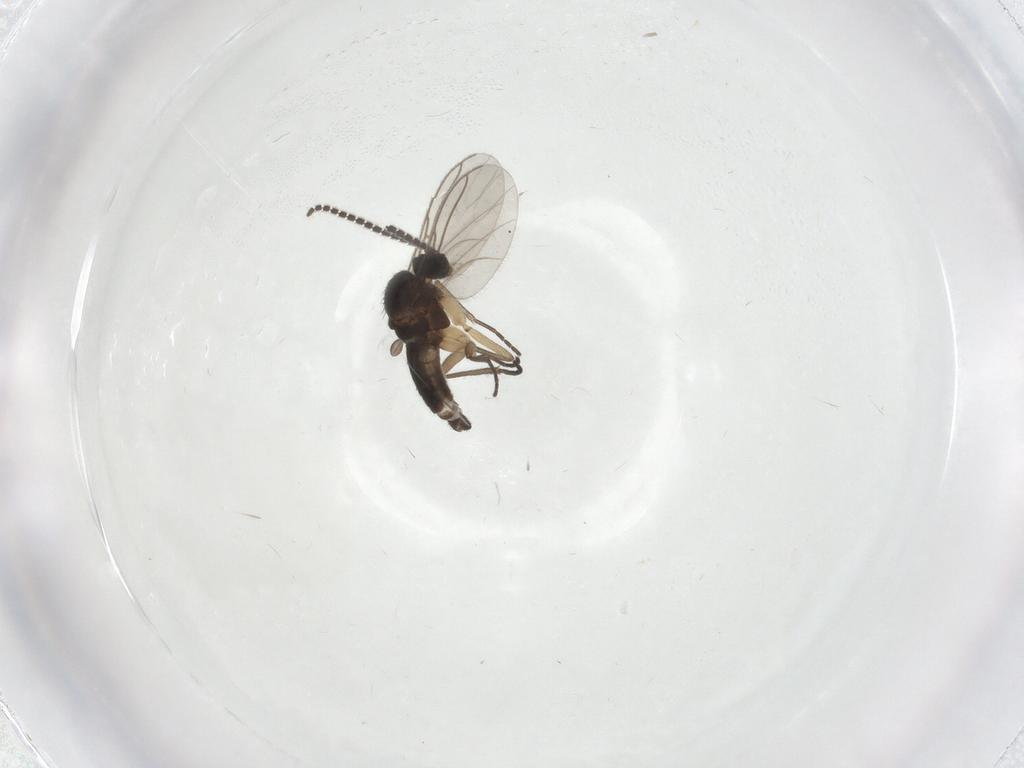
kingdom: Animalia
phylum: Arthropoda
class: Insecta
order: Diptera
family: Sciaridae
